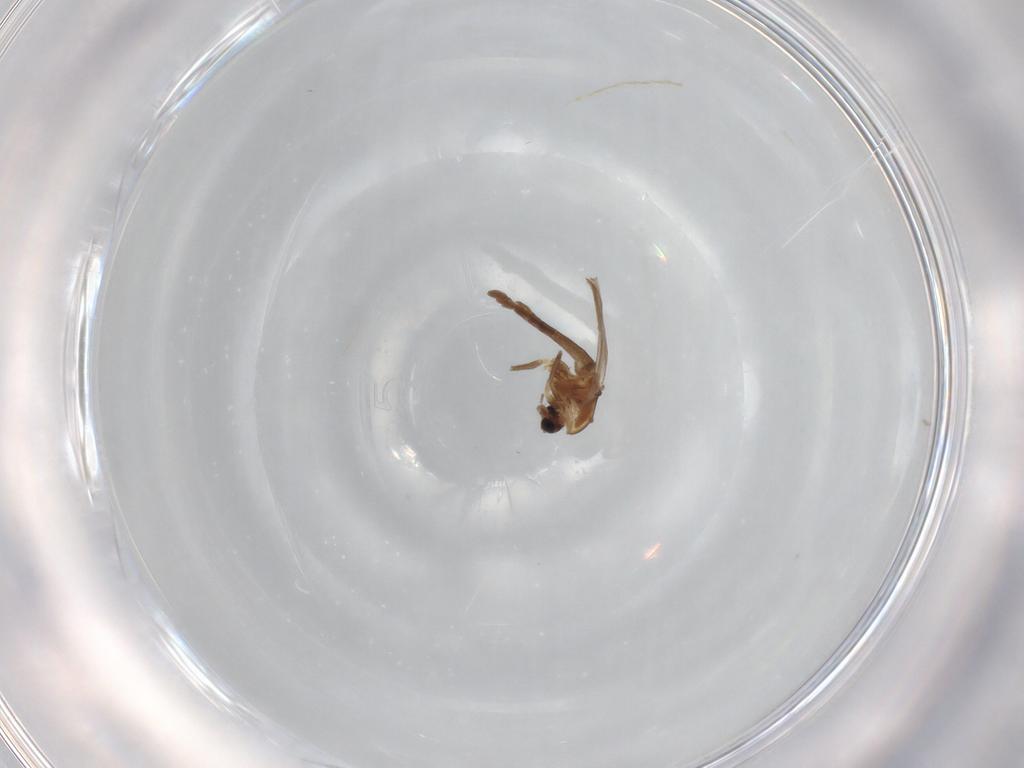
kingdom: Animalia
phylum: Arthropoda
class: Insecta
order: Diptera
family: Chironomidae
